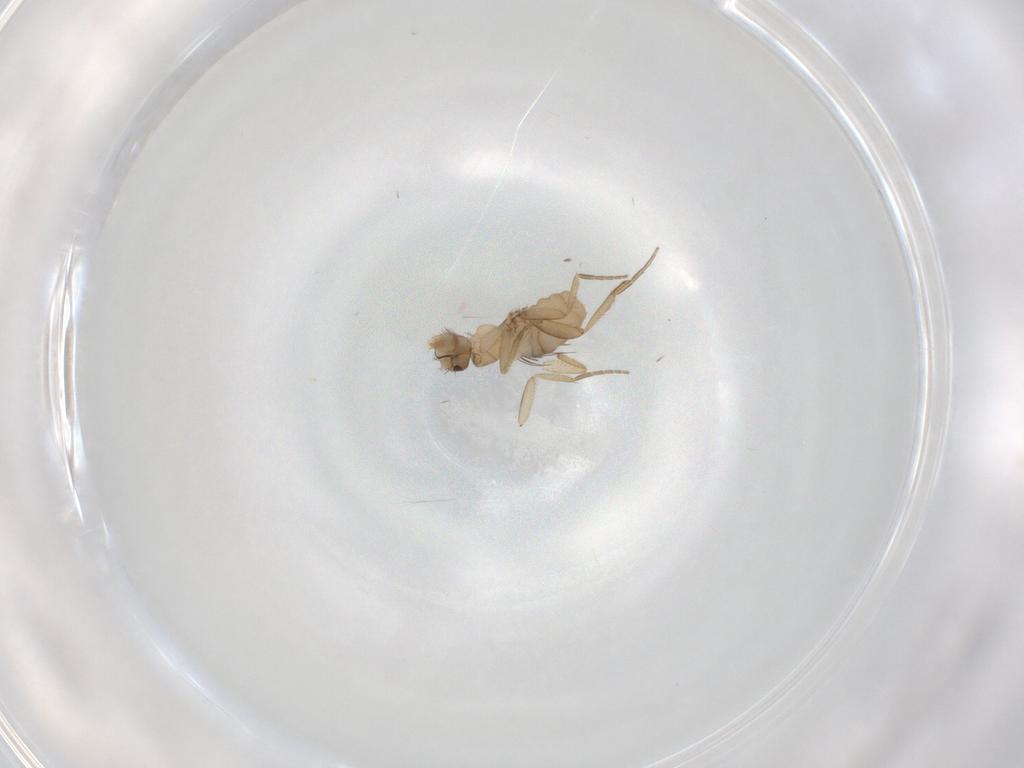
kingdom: Animalia
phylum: Arthropoda
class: Insecta
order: Diptera
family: Phoridae
